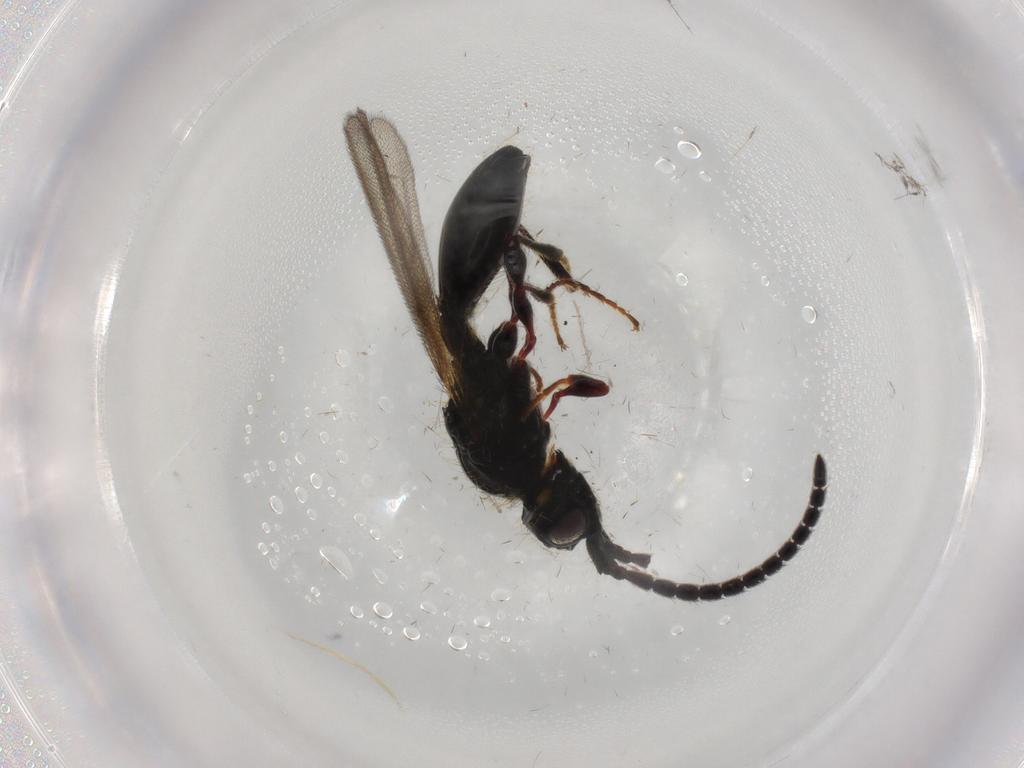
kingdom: Animalia
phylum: Arthropoda
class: Insecta
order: Hymenoptera
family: Diapriidae
